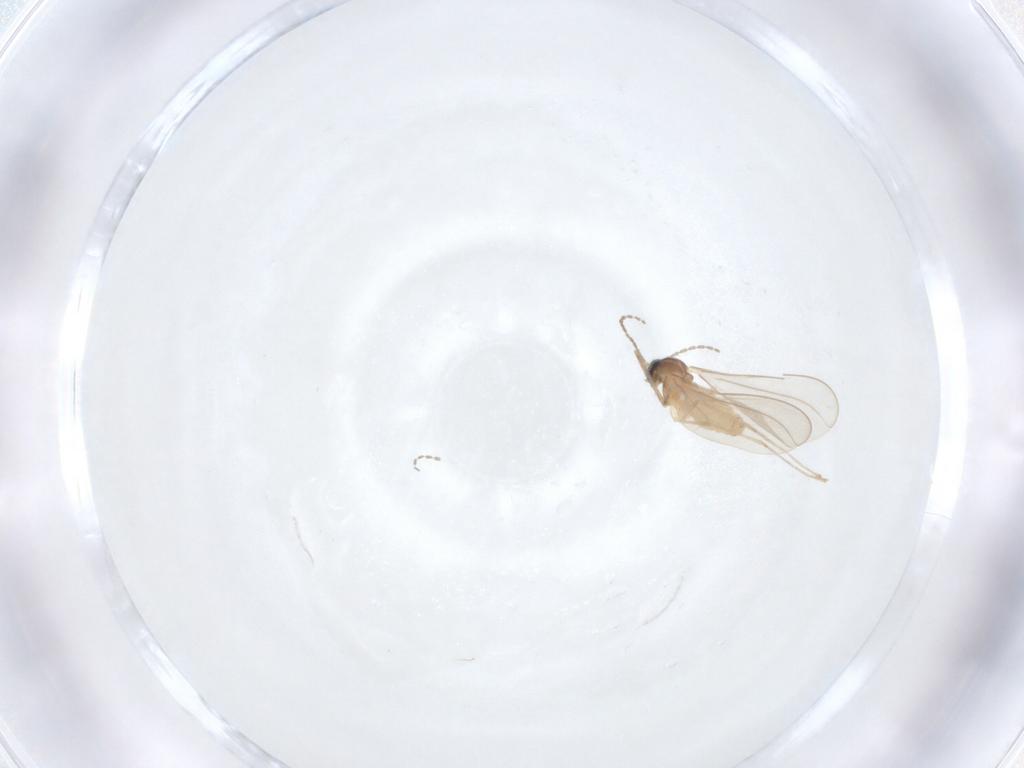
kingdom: Animalia
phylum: Arthropoda
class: Insecta
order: Diptera
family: Cecidomyiidae
